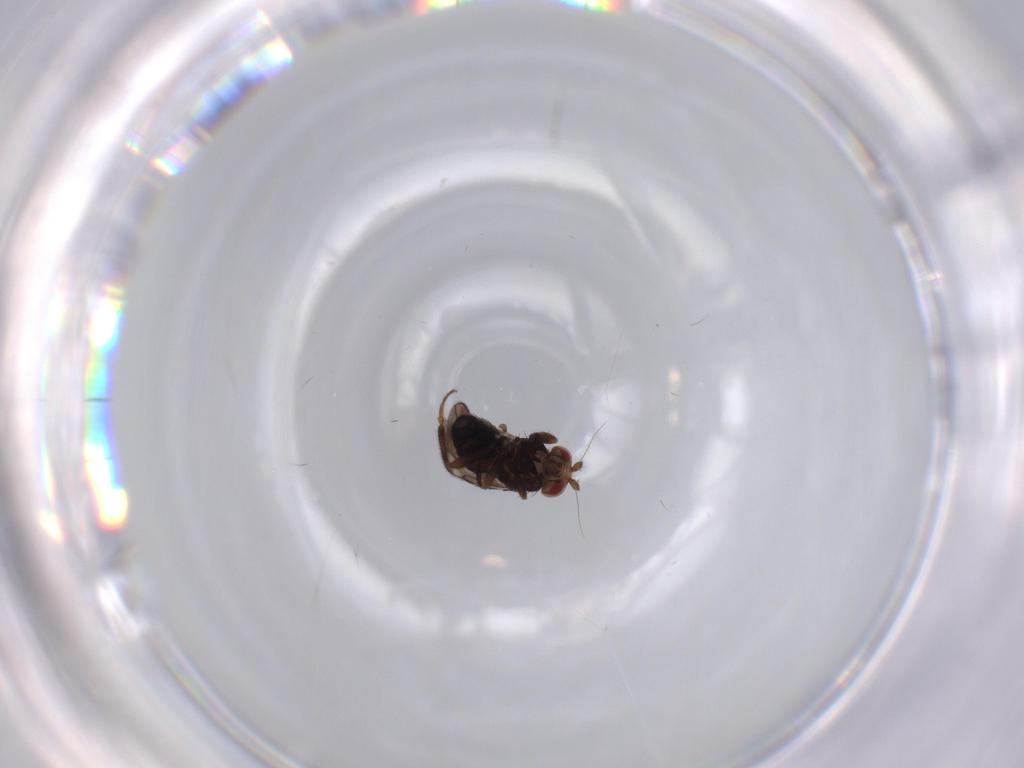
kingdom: Animalia
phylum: Arthropoda
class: Insecta
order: Diptera
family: Sphaeroceridae
